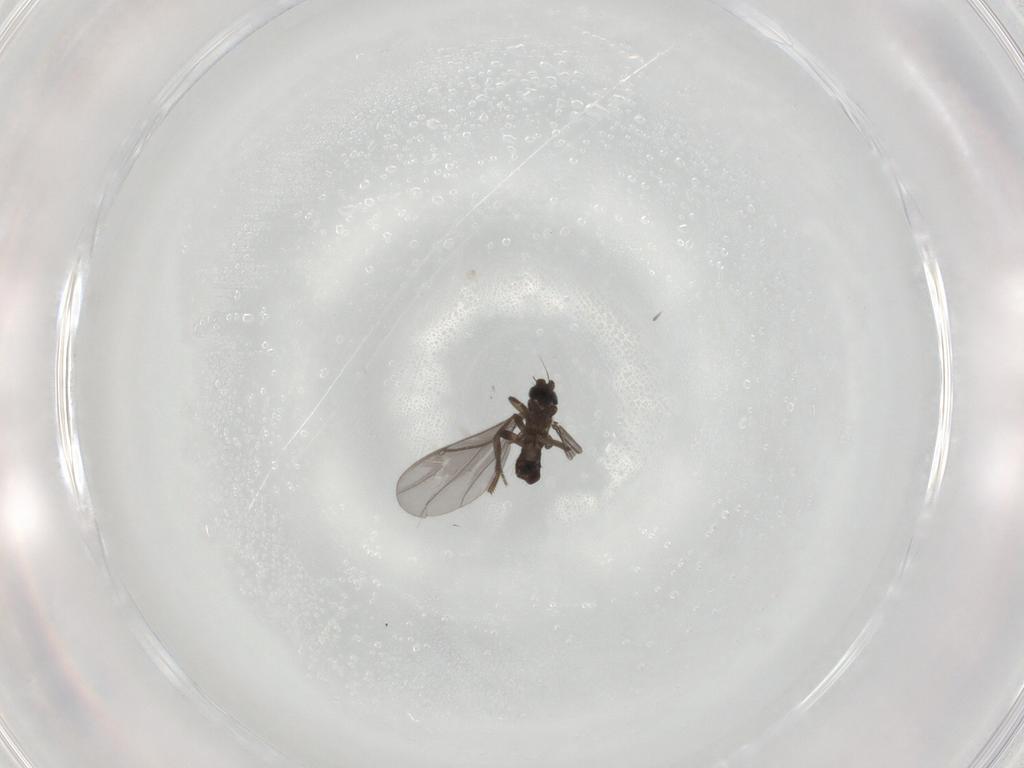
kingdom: Animalia
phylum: Arthropoda
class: Insecta
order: Diptera
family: Phoridae
